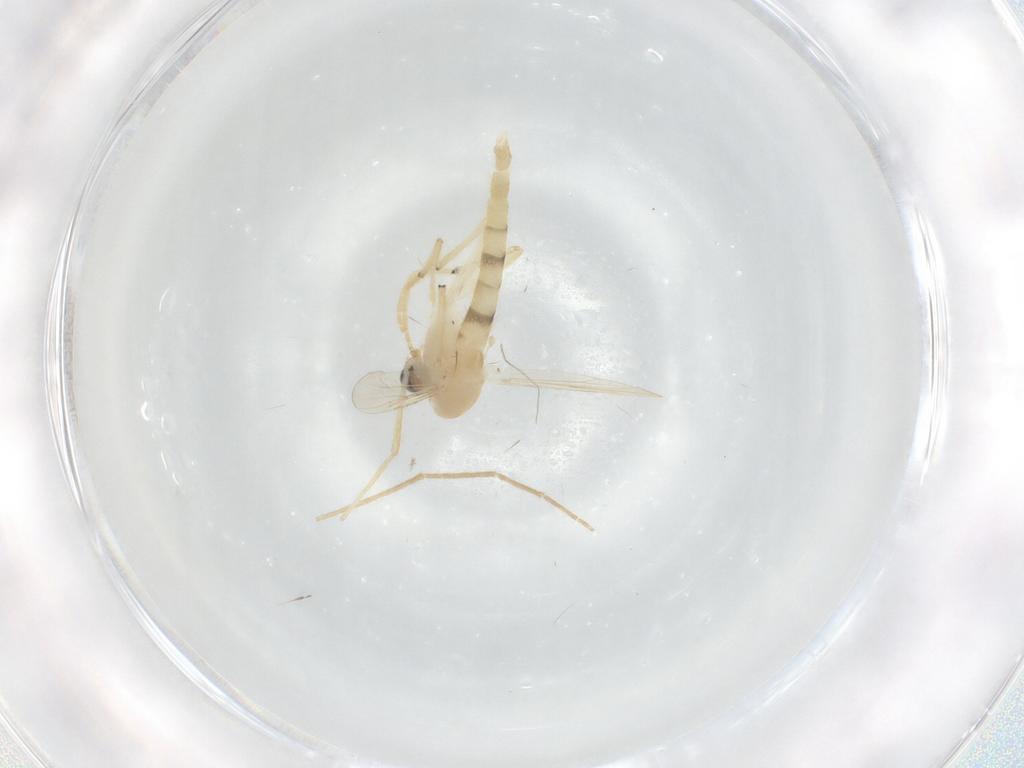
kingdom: Animalia
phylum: Arthropoda
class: Insecta
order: Diptera
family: Chironomidae
